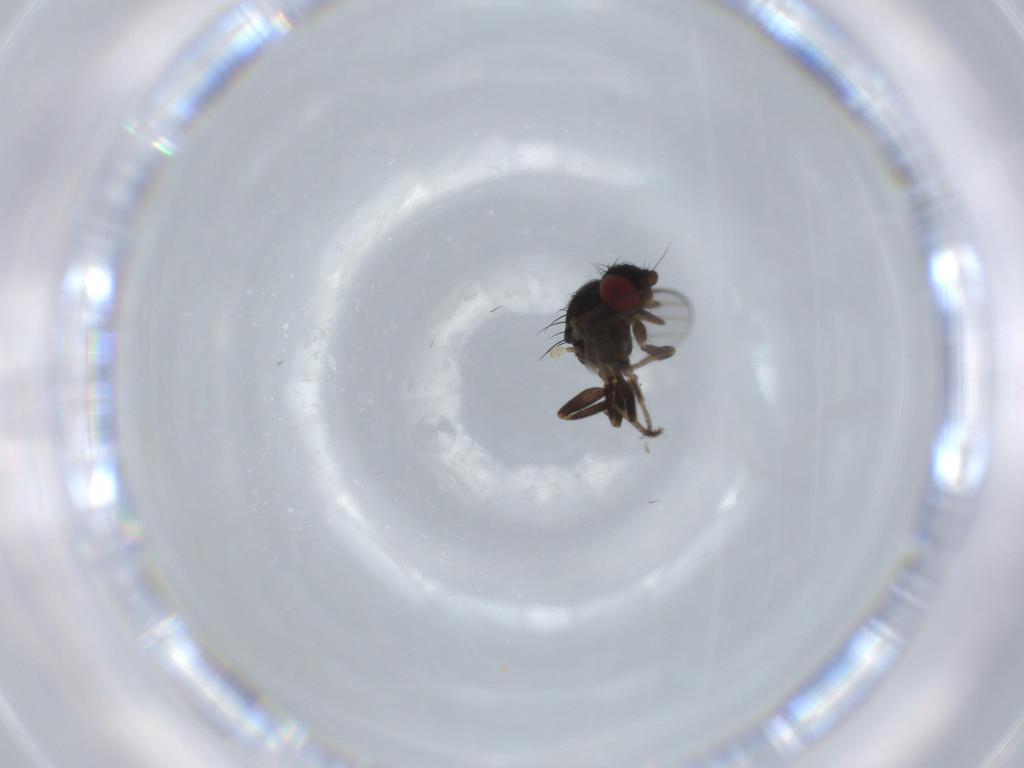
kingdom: Animalia
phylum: Arthropoda
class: Insecta
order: Diptera
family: Milichiidae
